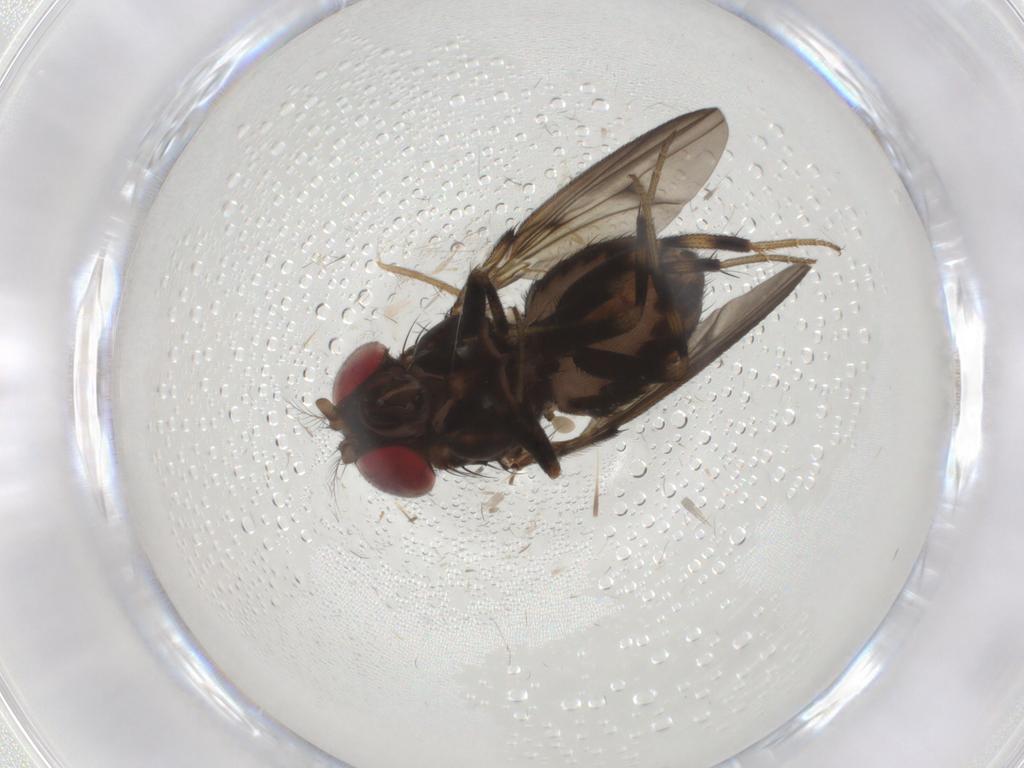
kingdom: Animalia
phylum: Arthropoda
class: Insecta
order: Diptera
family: Drosophilidae
